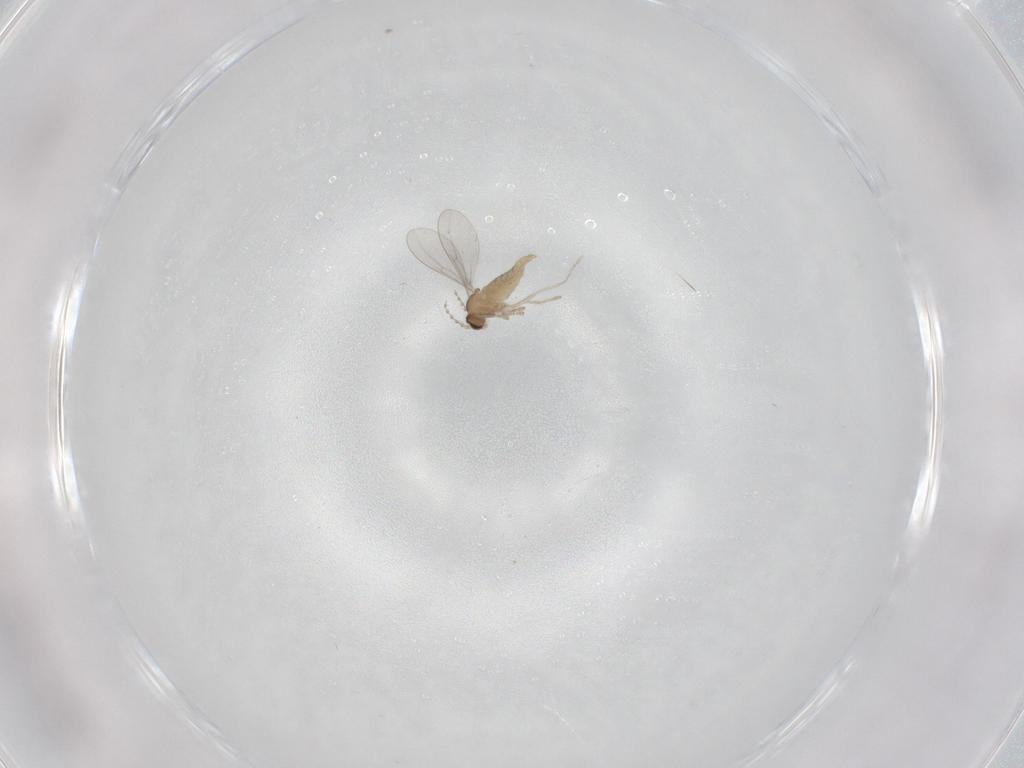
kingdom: Animalia
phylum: Arthropoda
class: Insecta
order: Diptera
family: Cecidomyiidae
